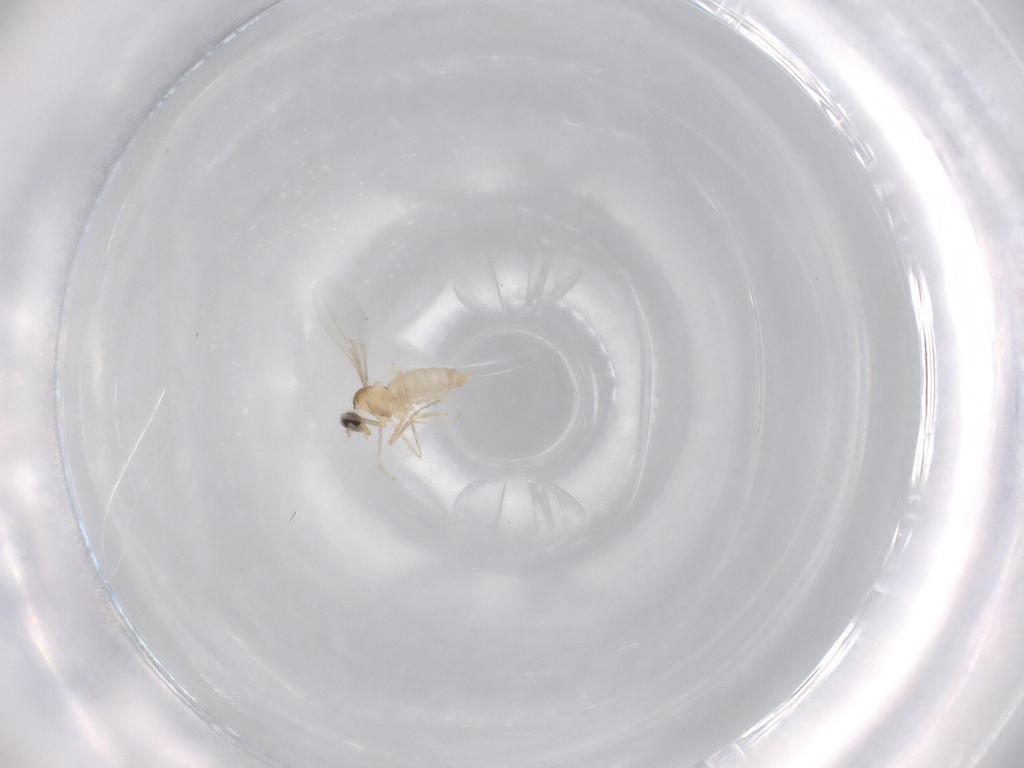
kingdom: Animalia
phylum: Arthropoda
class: Insecta
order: Diptera
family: Cecidomyiidae
